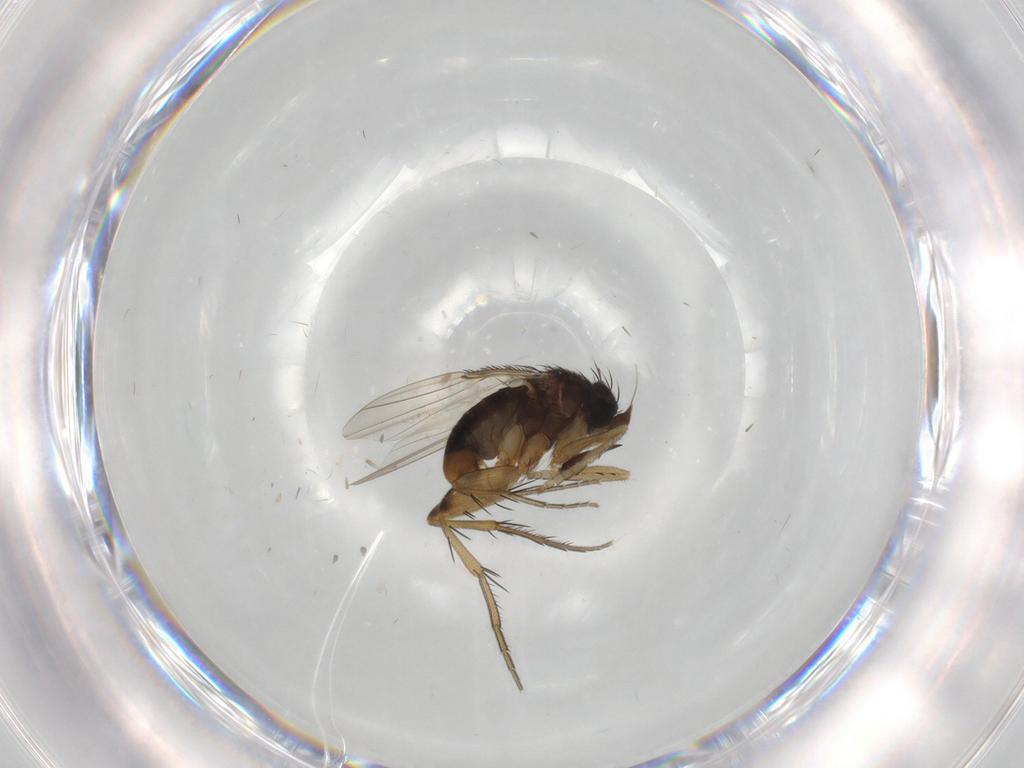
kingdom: Animalia
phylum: Arthropoda
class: Insecta
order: Diptera
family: Phoridae
